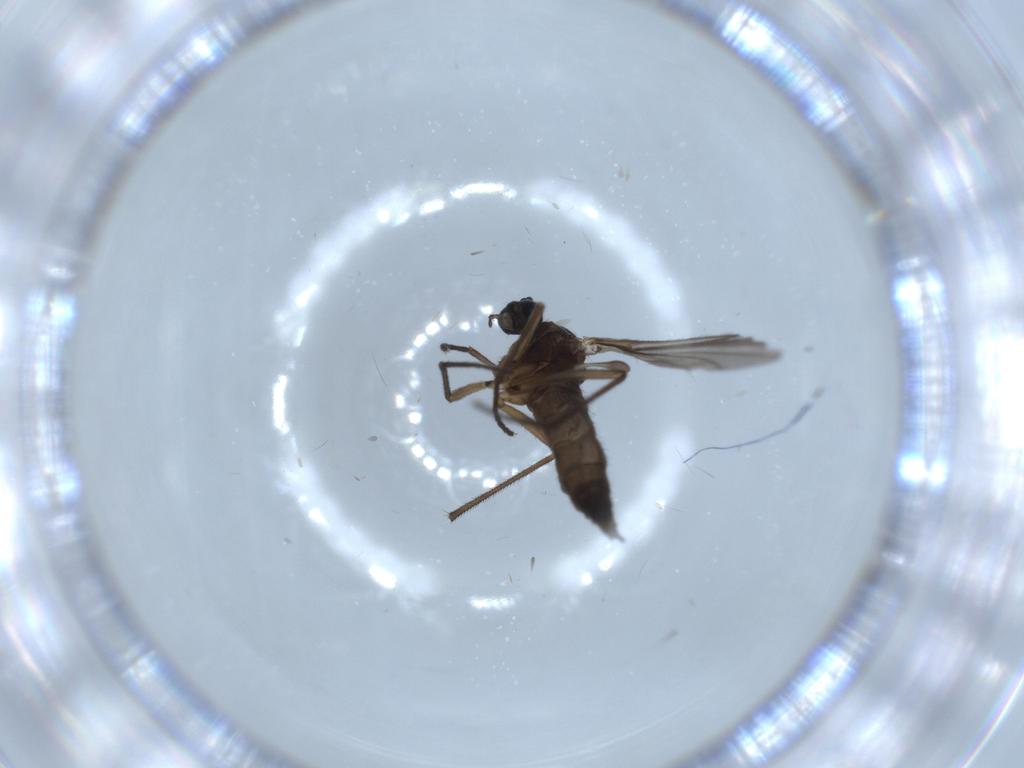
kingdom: Animalia
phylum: Arthropoda
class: Insecta
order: Diptera
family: Sciaridae
